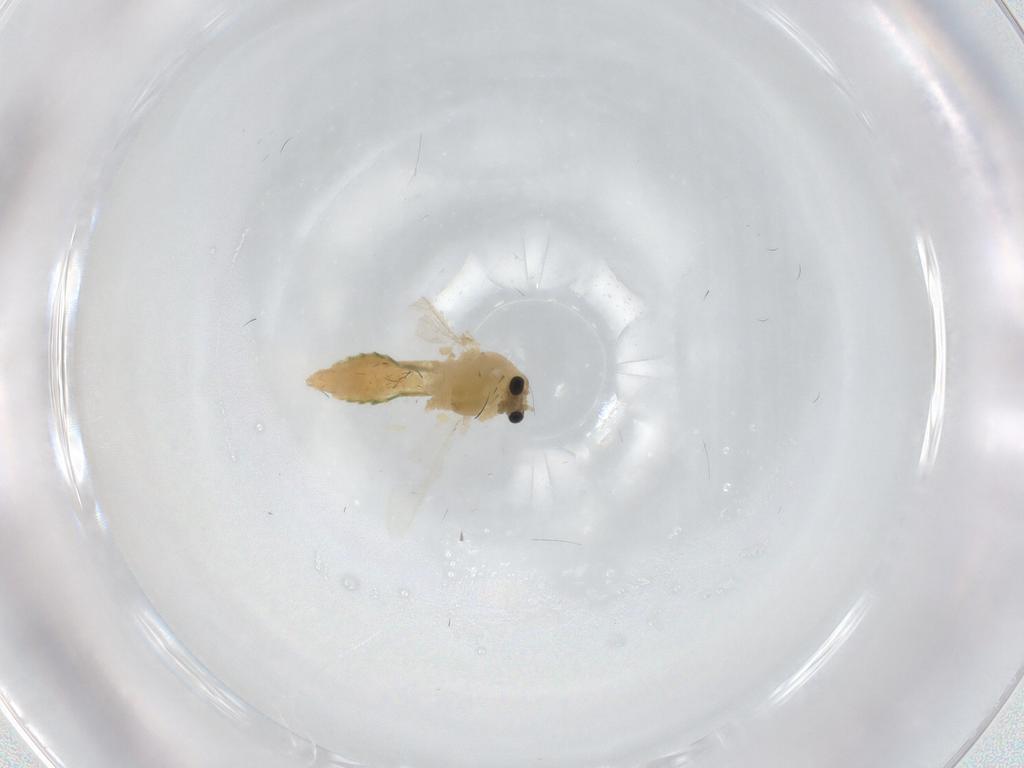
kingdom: Animalia
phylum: Arthropoda
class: Insecta
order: Diptera
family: Chironomidae
